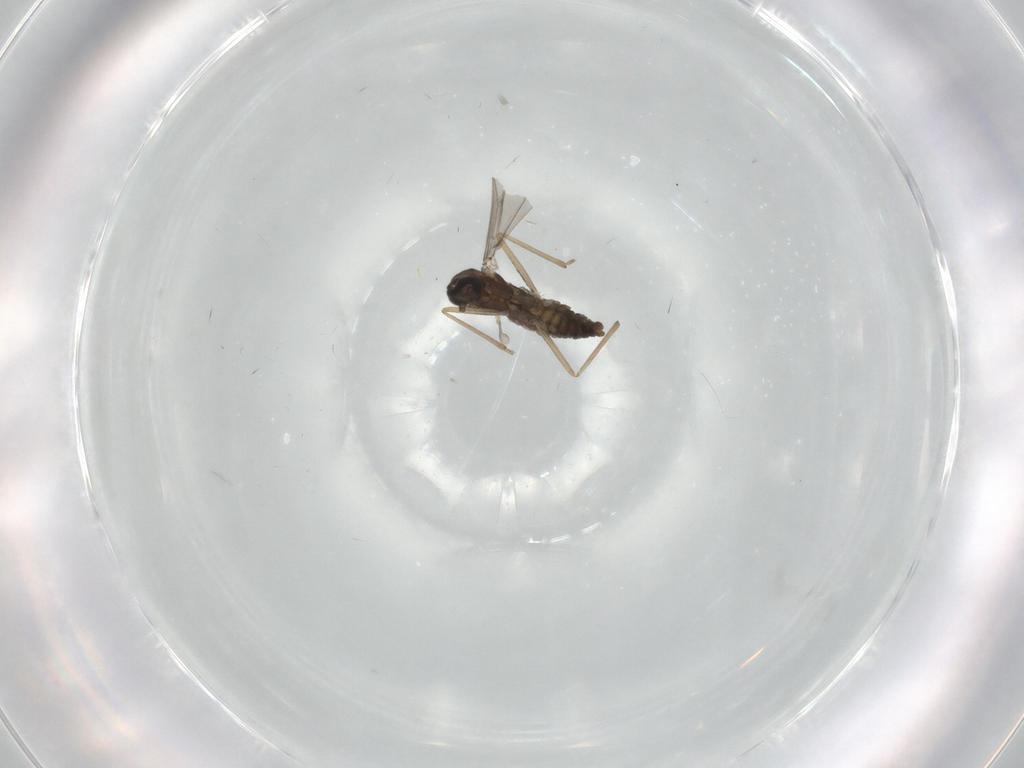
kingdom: Animalia
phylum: Arthropoda
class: Insecta
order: Diptera
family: Cecidomyiidae
